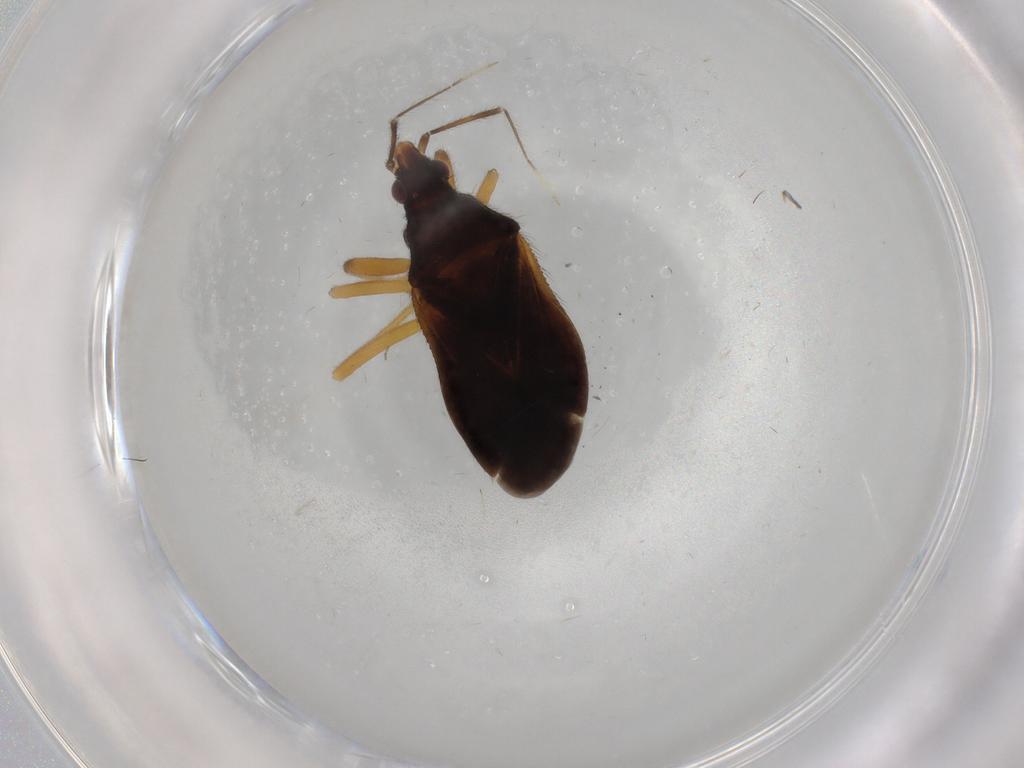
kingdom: Animalia
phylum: Arthropoda
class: Insecta
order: Hemiptera
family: Anthocoridae
